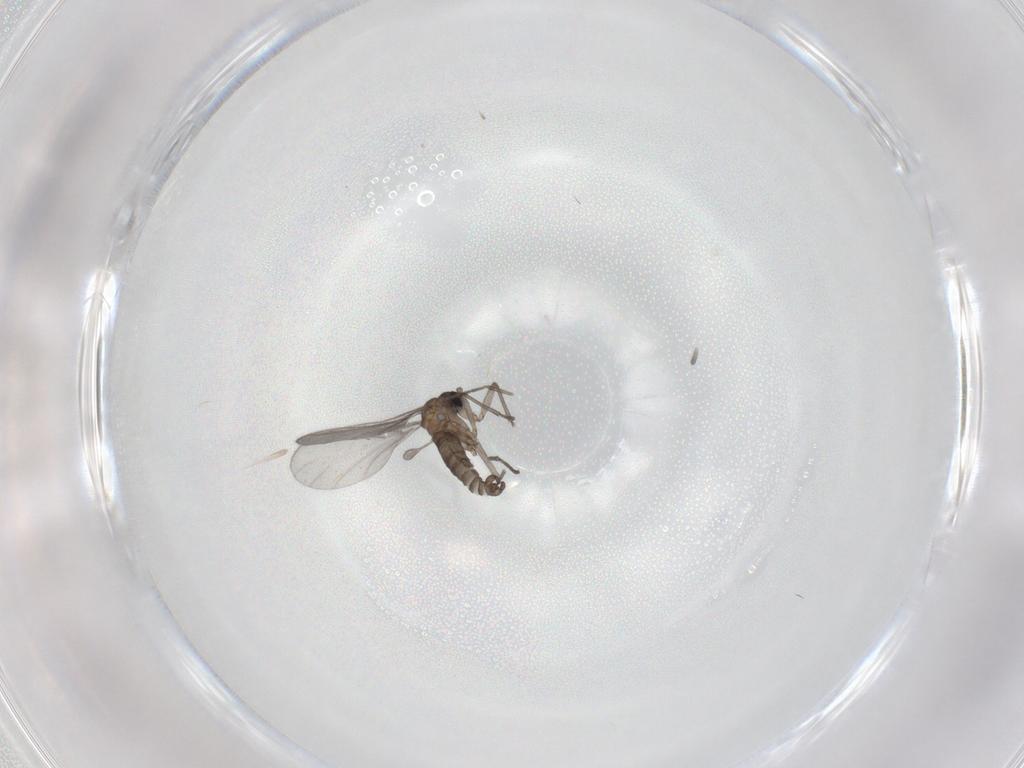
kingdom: Animalia
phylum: Arthropoda
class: Insecta
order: Diptera
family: Sciaridae
